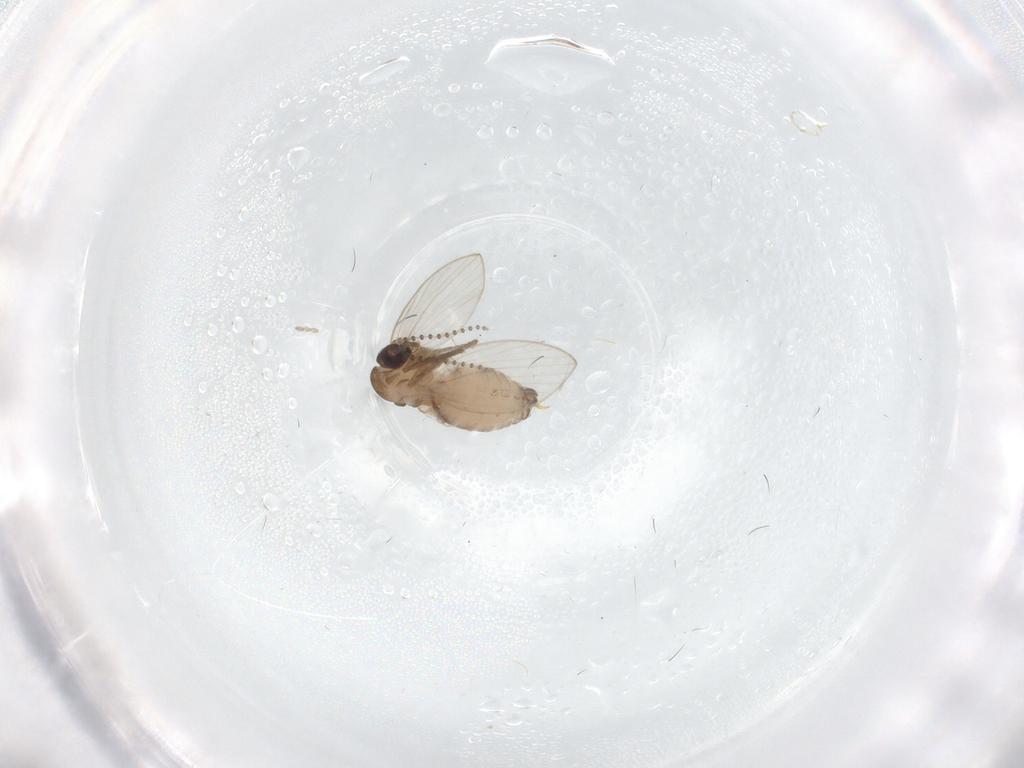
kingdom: Animalia
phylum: Arthropoda
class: Insecta
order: Diptera
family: Psychodidae
